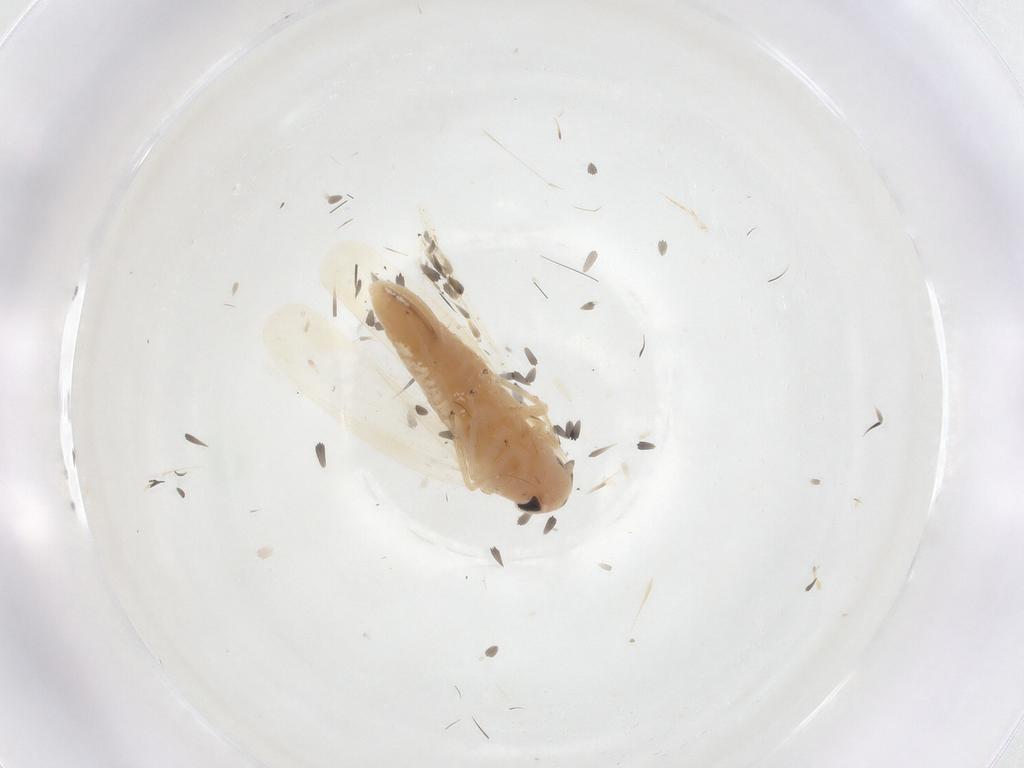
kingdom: Animalia
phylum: Arthropoda
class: Insecta
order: Hemiptera
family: Cicadellidae
